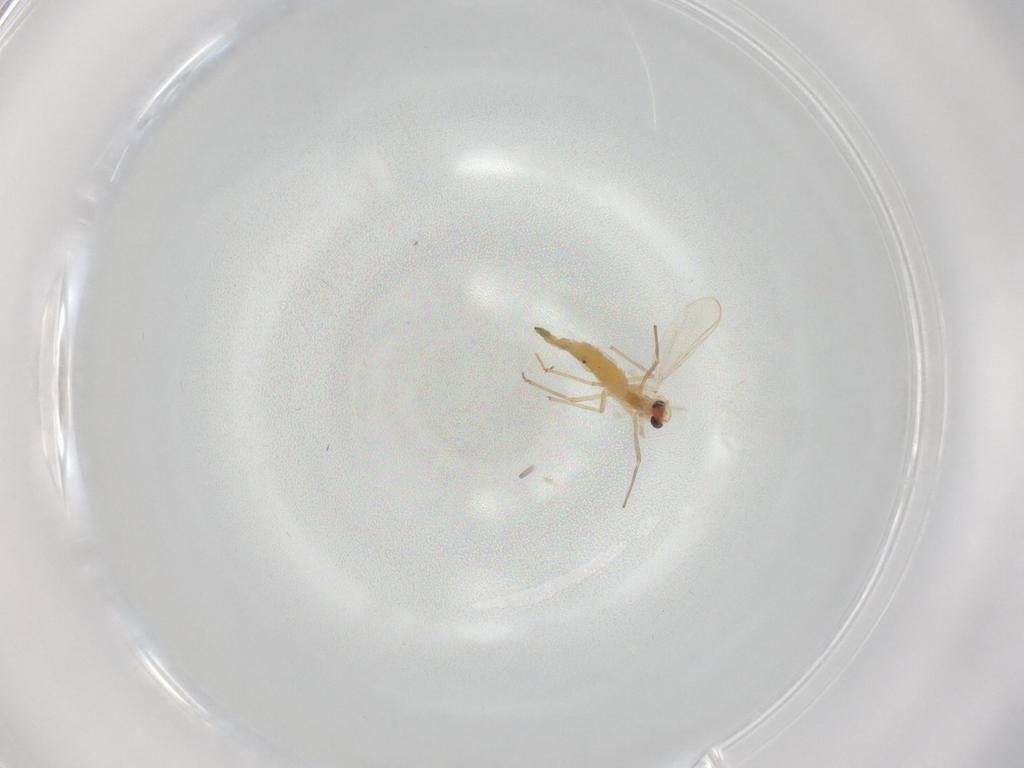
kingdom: Animalia
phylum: Arthropoda
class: Insecta
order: Diptera
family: Chironomidae
